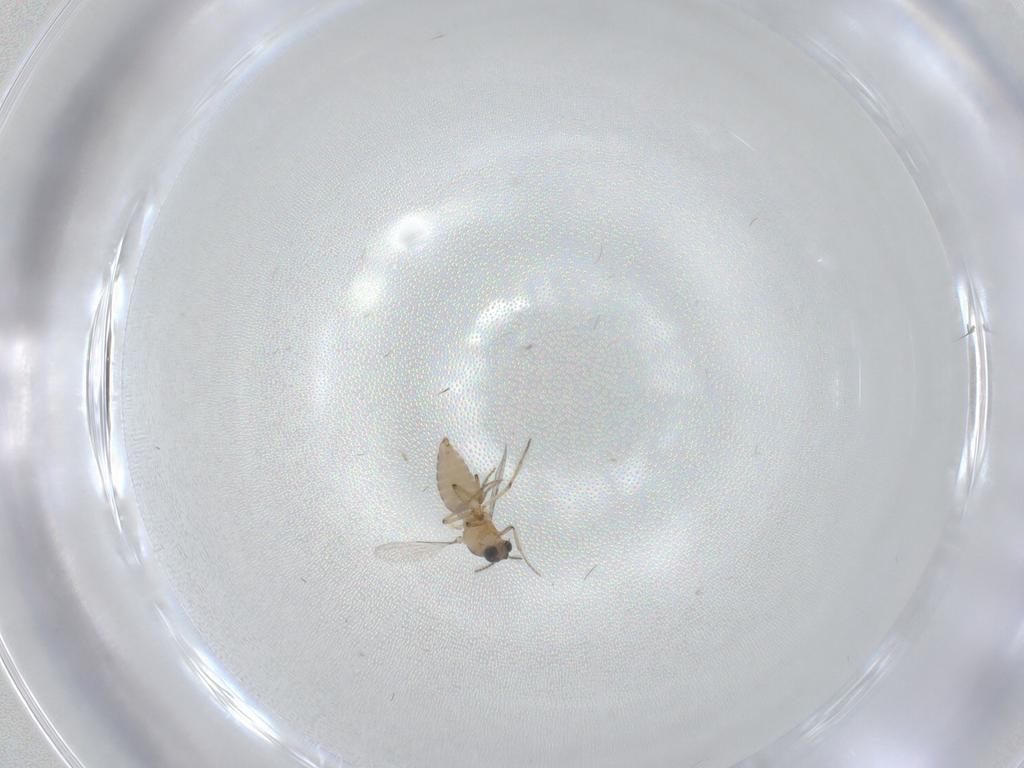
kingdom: Animalia
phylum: Arthropoda
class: Insecta
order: Diptera
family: Ceratopogonidae
